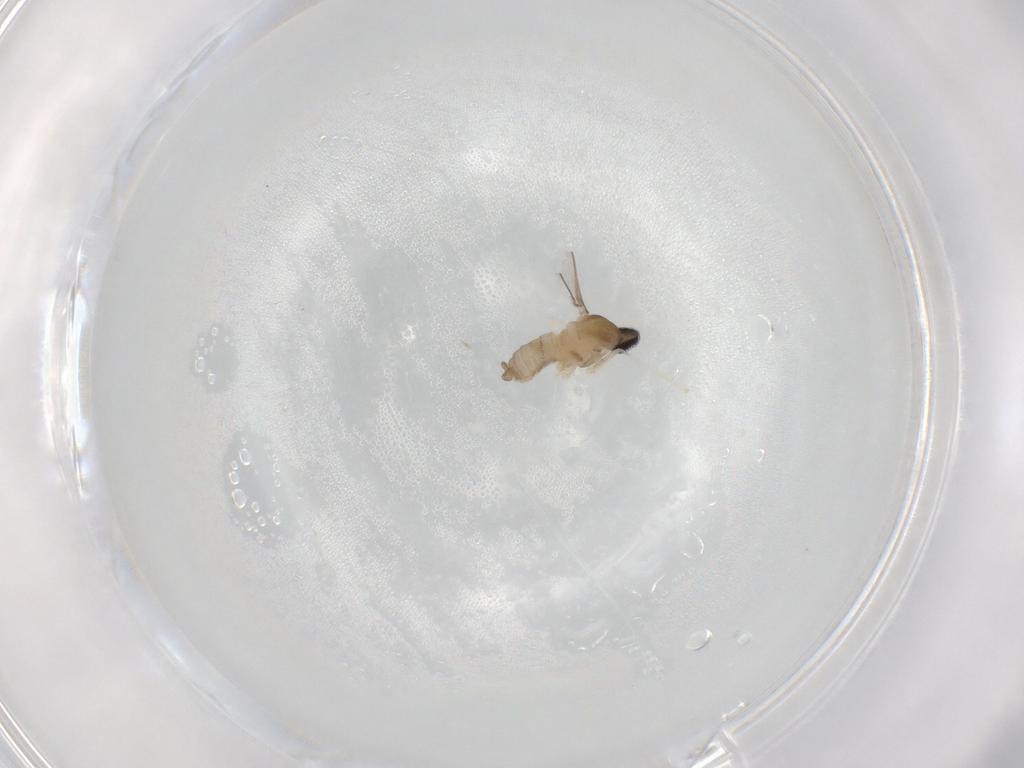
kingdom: Animalia
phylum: Arthropoda
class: Insecta
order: Diptera
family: Cecidomyiidae
